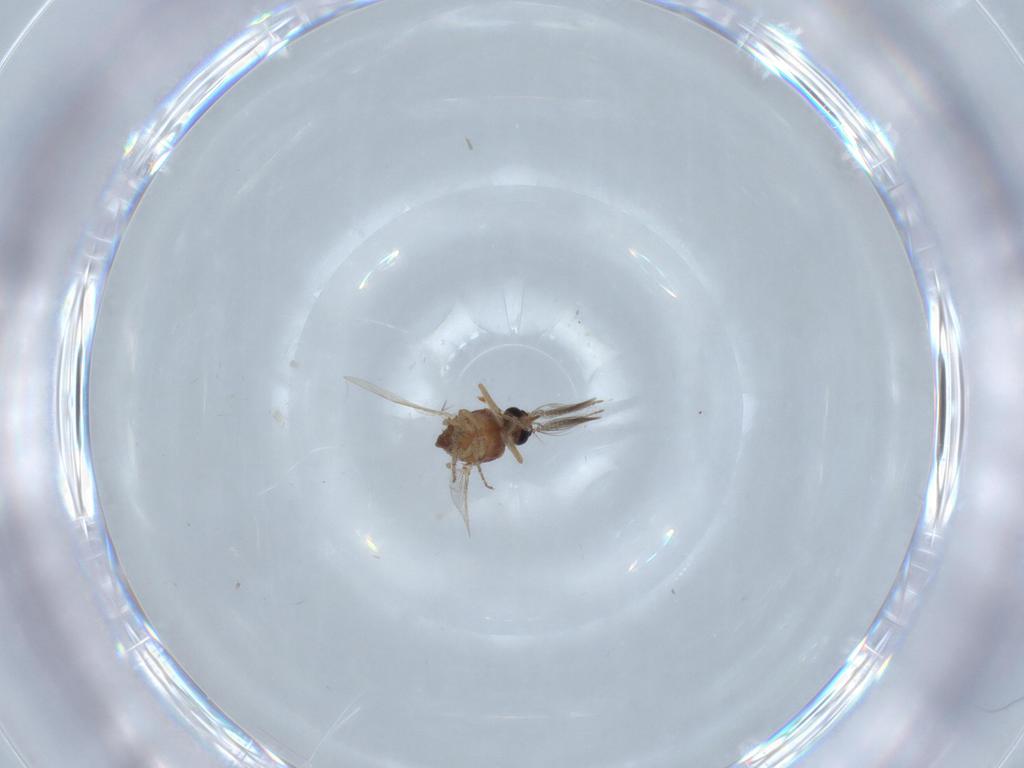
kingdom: Animalia
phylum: Arthropoda
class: Insecta
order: Diptera
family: Ceratopogonidae
